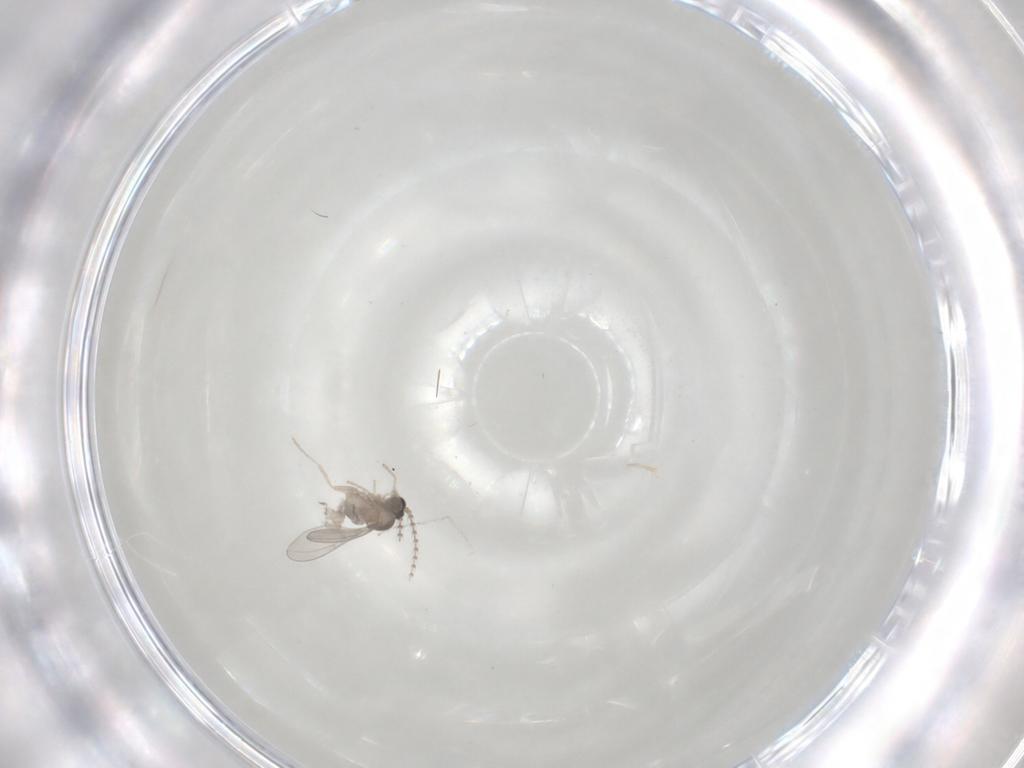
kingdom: Animalia
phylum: Arthropoda
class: Insecta
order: Diptera
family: Cecidomyiidae
